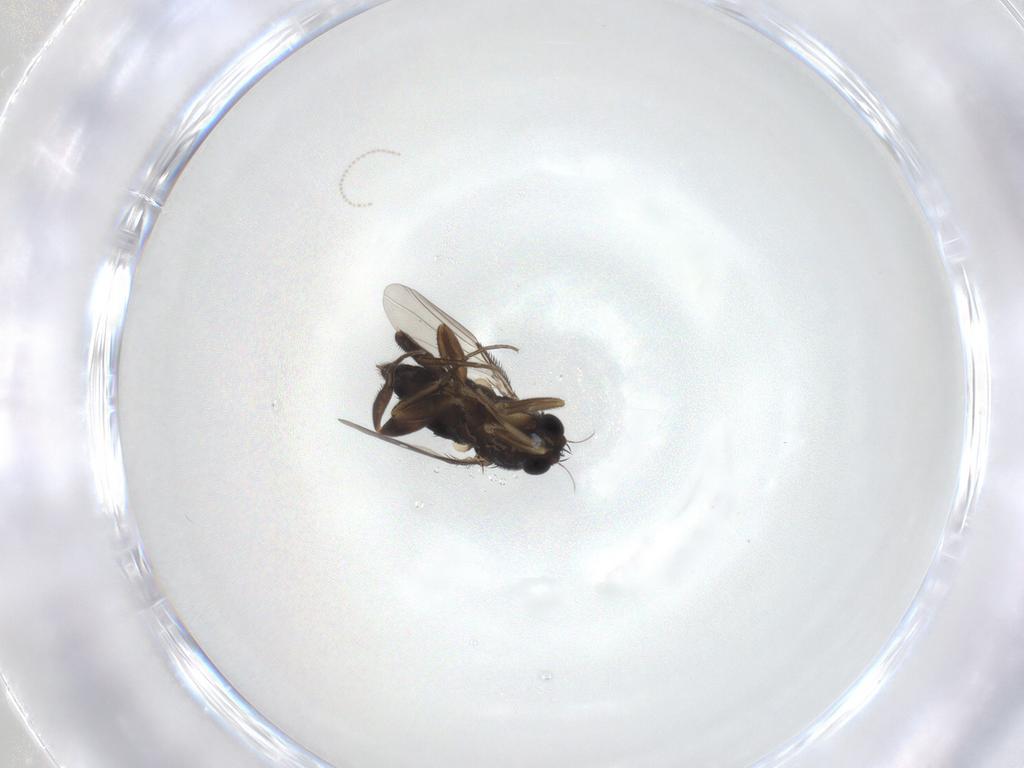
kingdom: Animalia
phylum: Arthropoda
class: Insecta
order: Diptera
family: Phoridae
